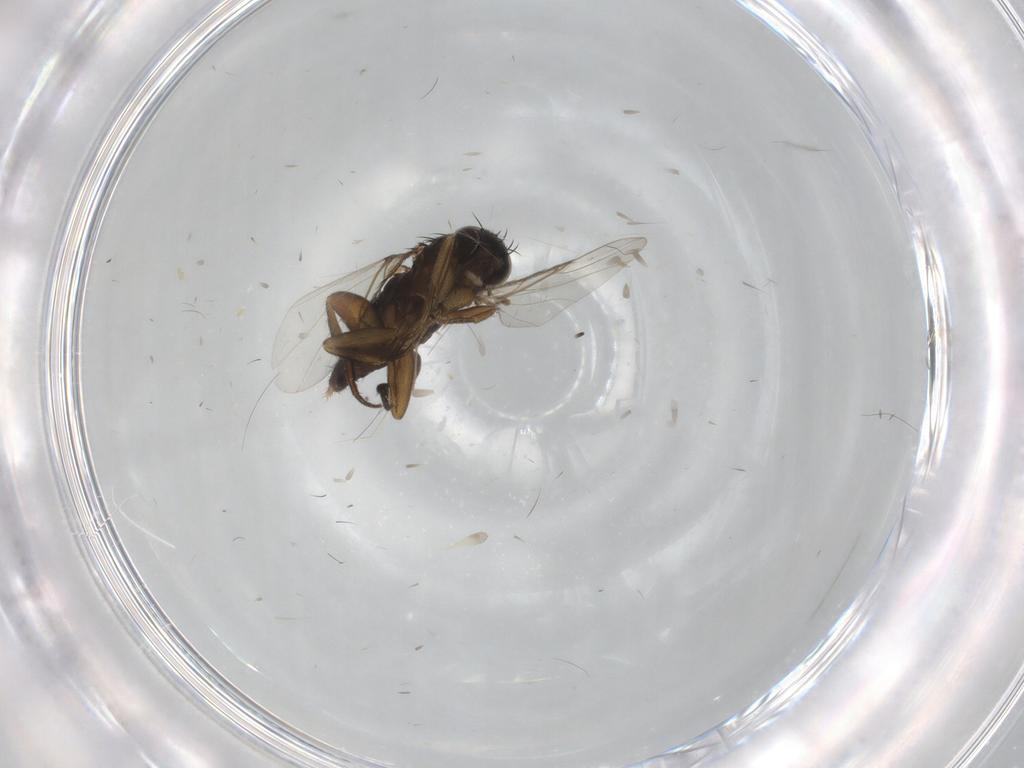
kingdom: Animalia
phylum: Arthropoda
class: Insecta
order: Diptera
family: Phoridae
